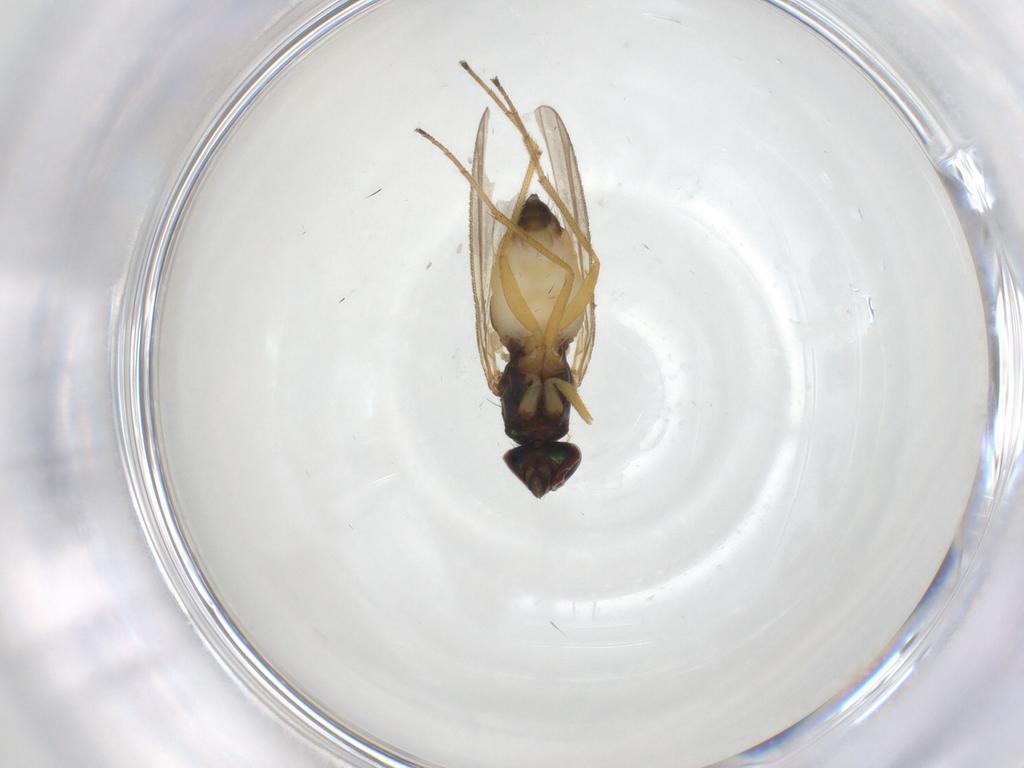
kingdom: Animalia
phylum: Arthropoda
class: Insecta
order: Diptera
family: Dolichopodidae
